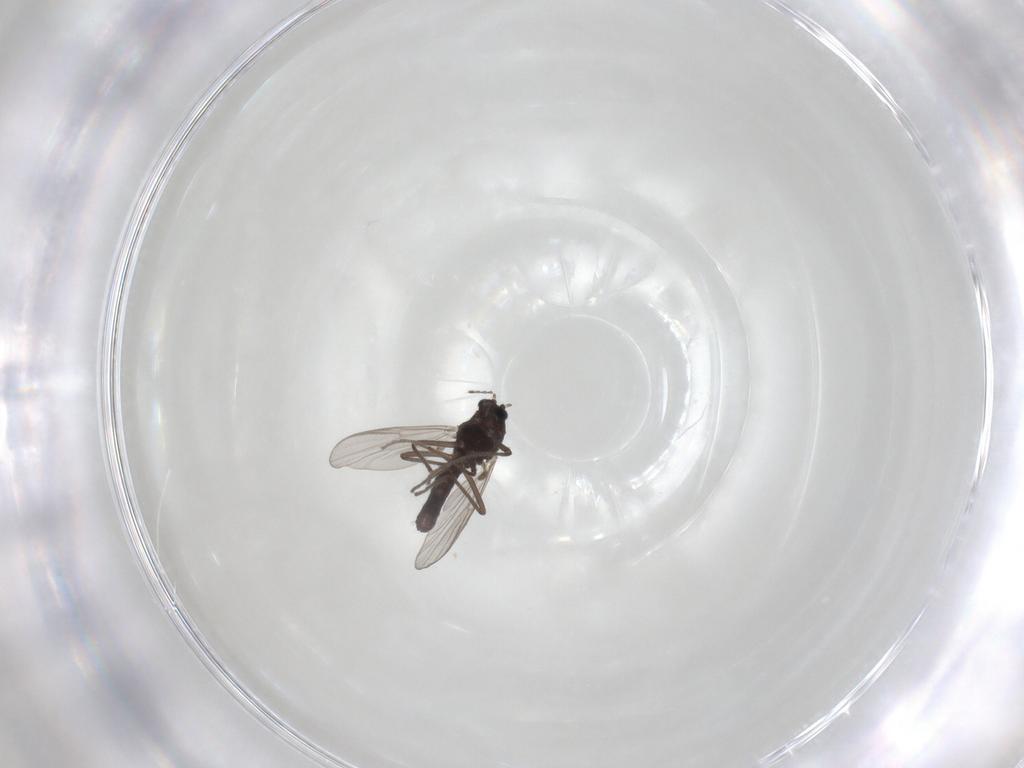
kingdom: Animalia
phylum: Arthropoda
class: Insecta
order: Diptera
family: Chironomidae
